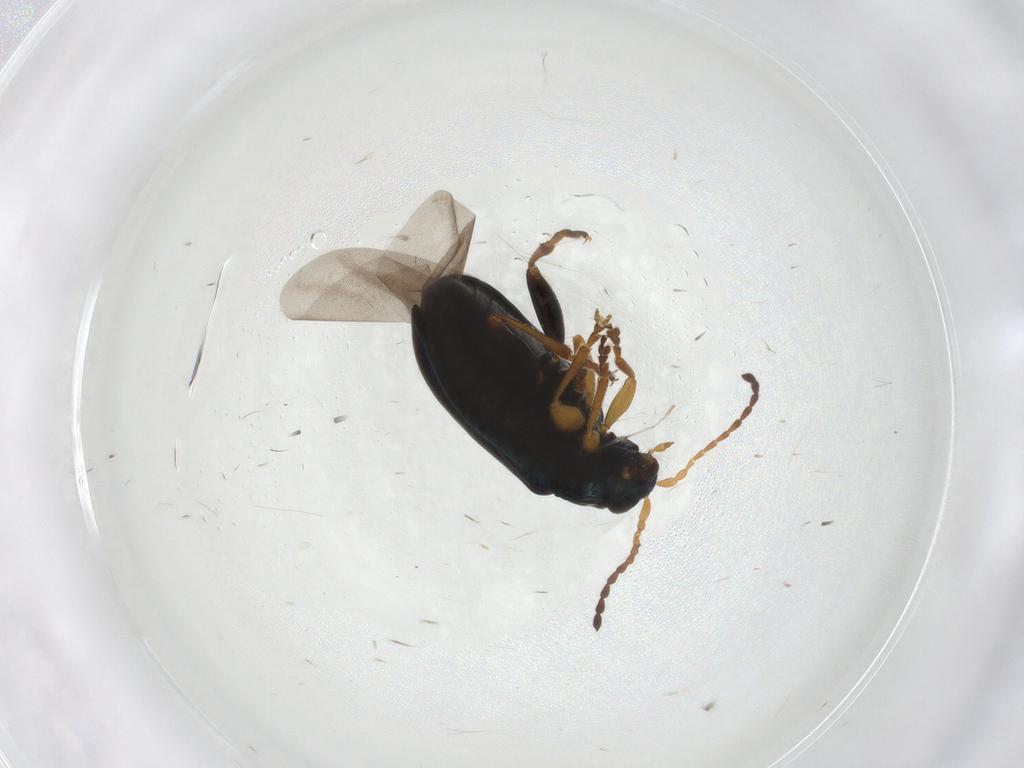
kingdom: Animalia
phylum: Arthropoda
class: Insecta
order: Coleoptera
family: Chrysomelidae
